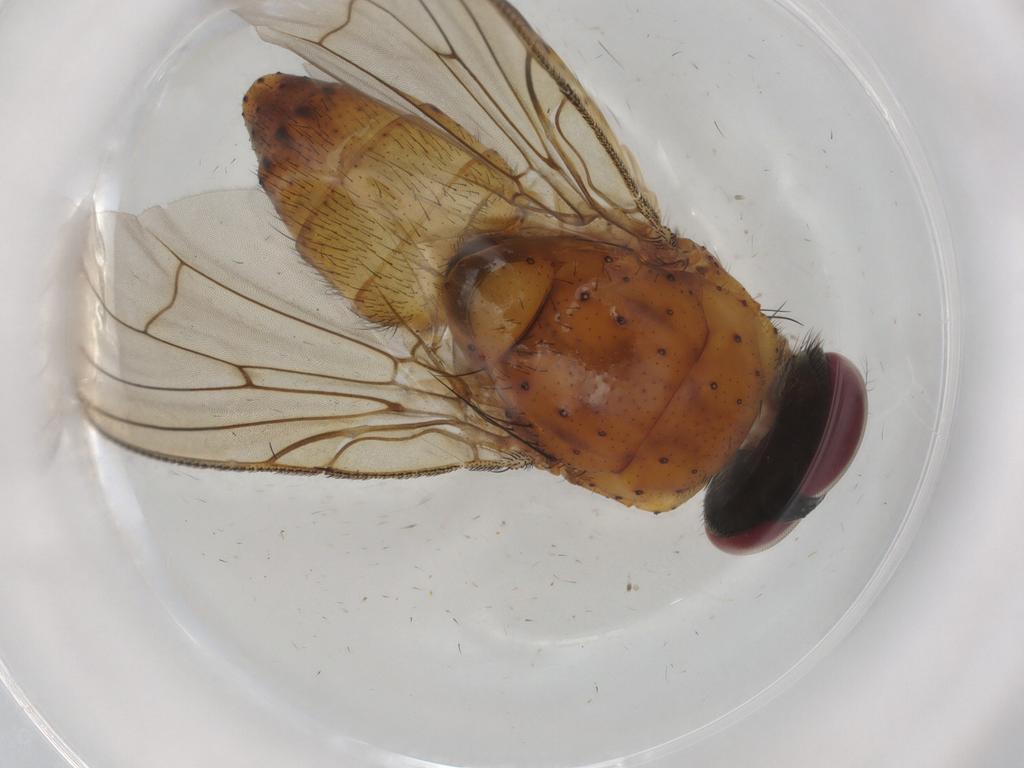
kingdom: Animalia
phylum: Arthropoda
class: Insecta
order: Diptera
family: Muscidae
